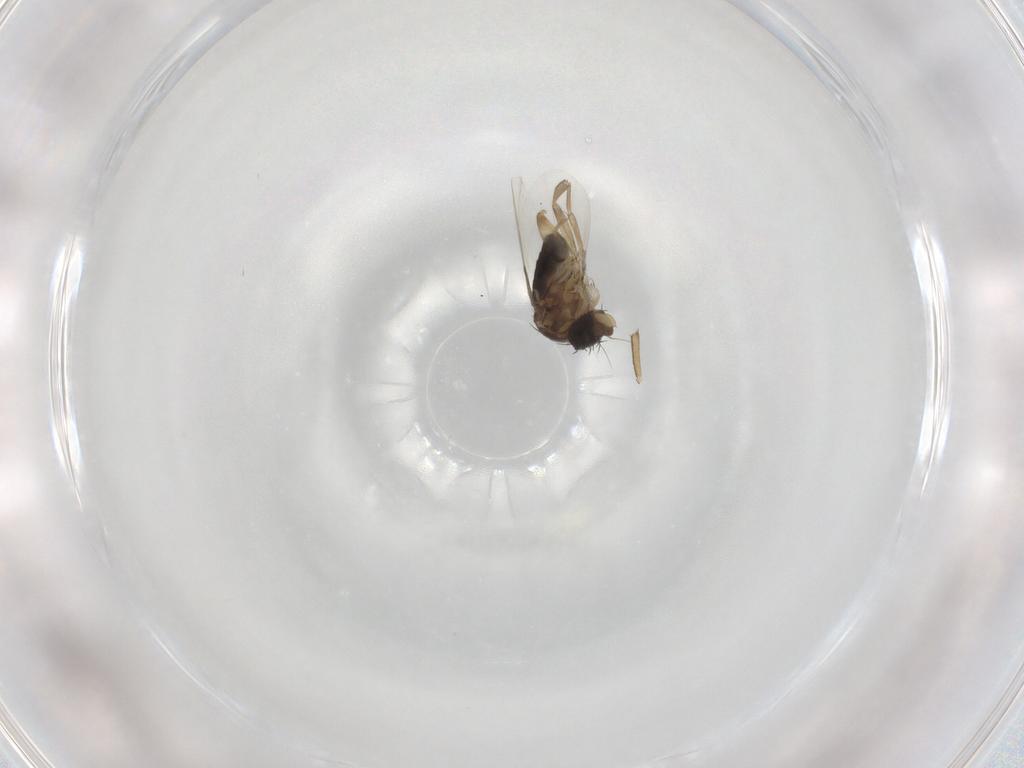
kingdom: Animalia
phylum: Arthropoda
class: Insecta
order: Diptera
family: Phoridae
